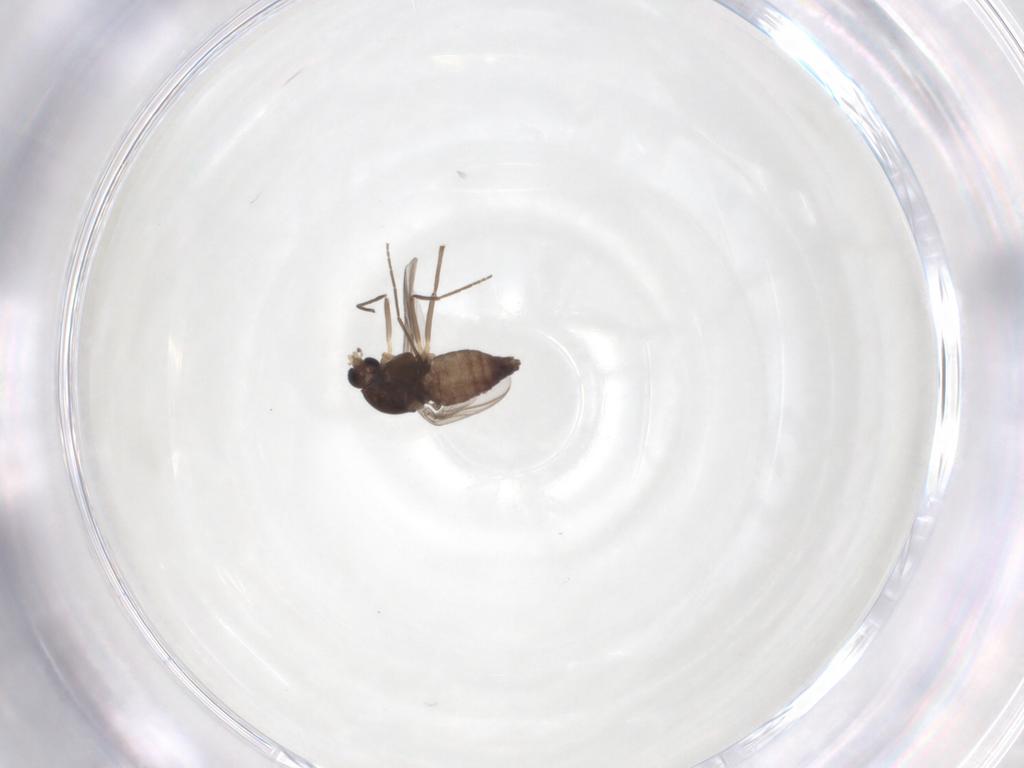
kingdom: Animalia
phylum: Arthropoda
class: Insecta
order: Diptera
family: Chironomidae
